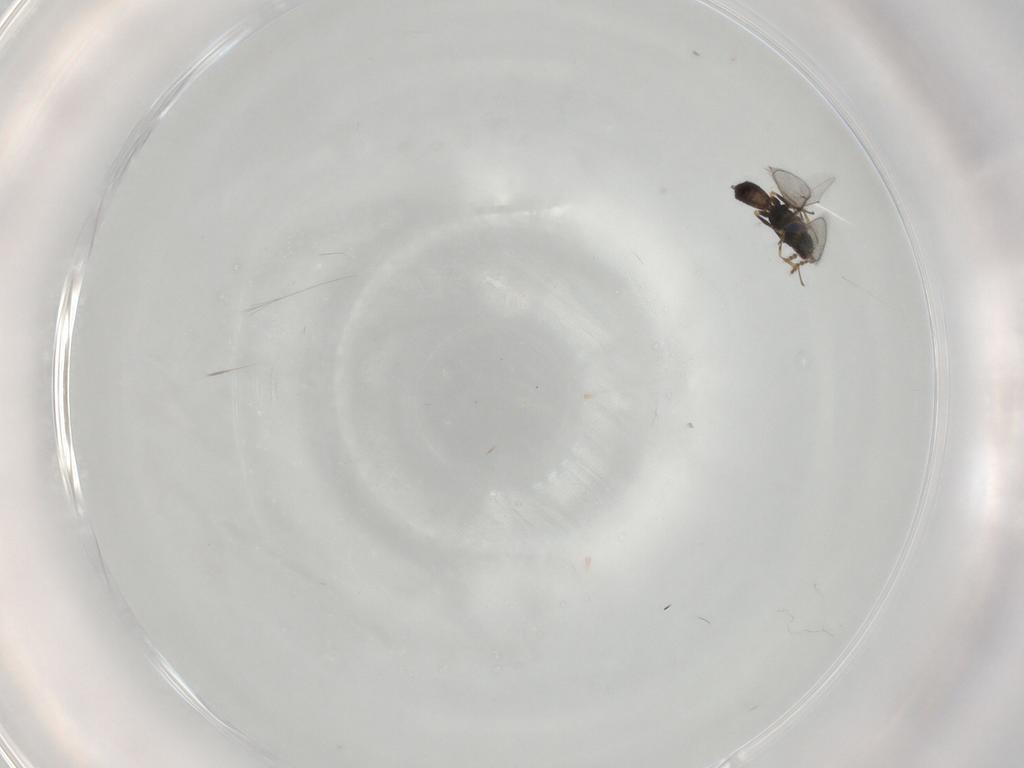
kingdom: Animalia
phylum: Arthropoda
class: Insecta
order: Hymenoptera
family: Eulophidae
